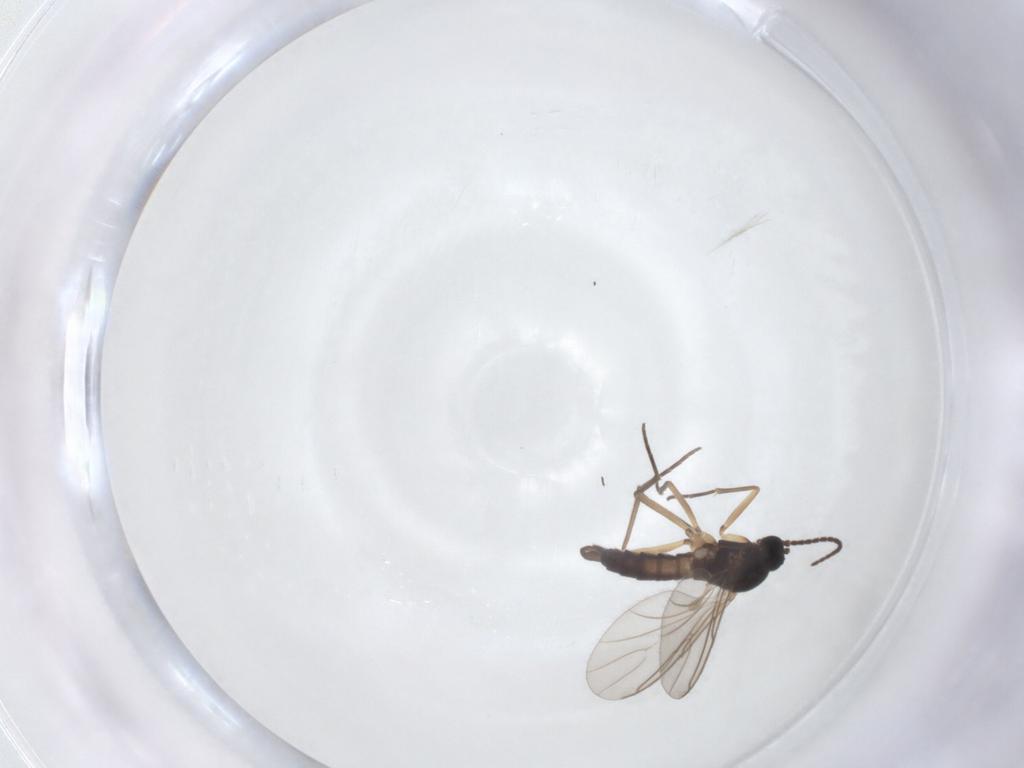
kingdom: Animalia
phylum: Arthropoda
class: Insecta
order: Diptera
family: Sciaridae
